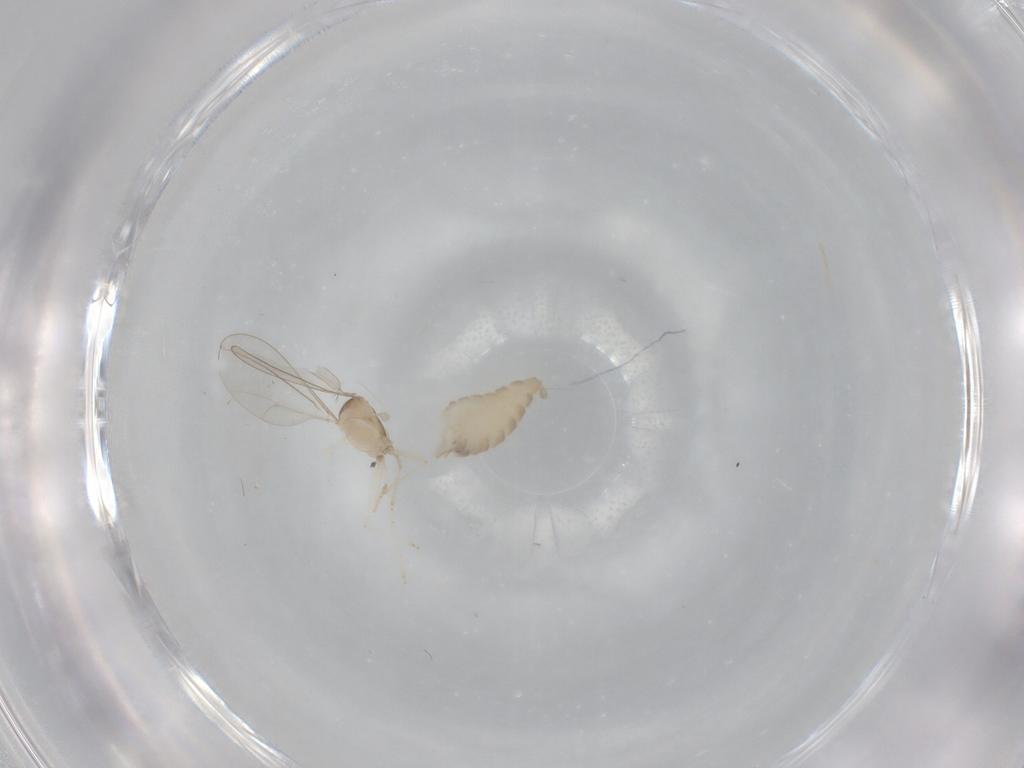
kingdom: Animalia
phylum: Arthropoda
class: Insecta
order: Diptera
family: Cecidomyiidae
